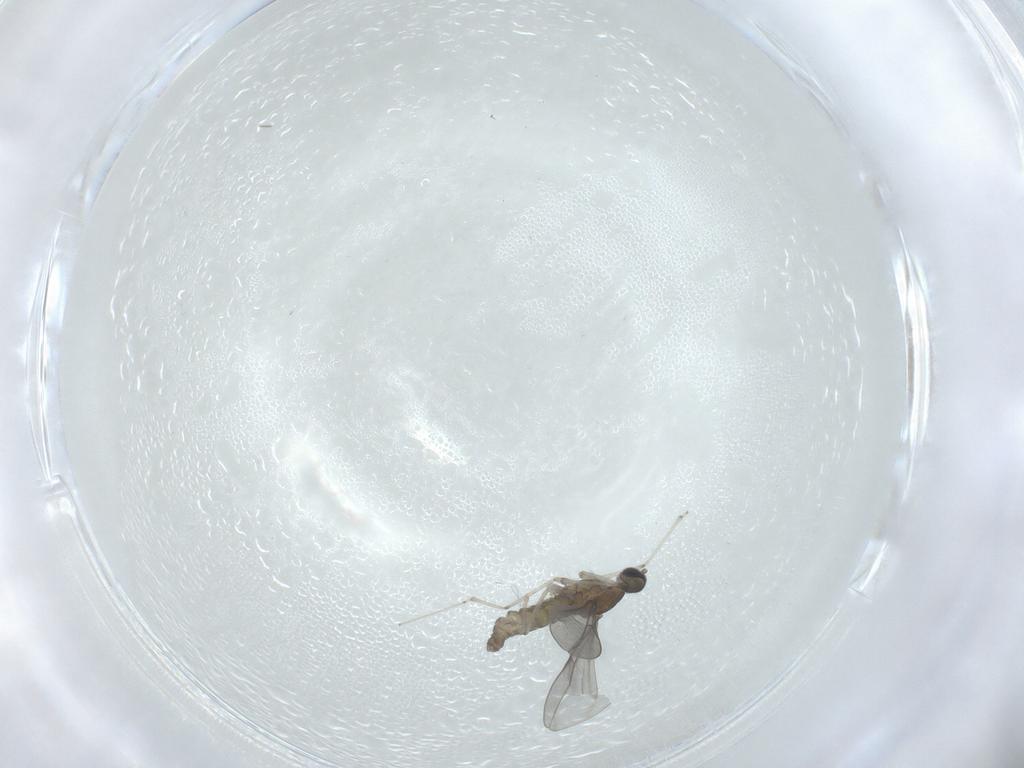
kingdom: Animalia
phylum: Arthropoda
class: Insecta
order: Diptera
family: Cecidomyiidae
